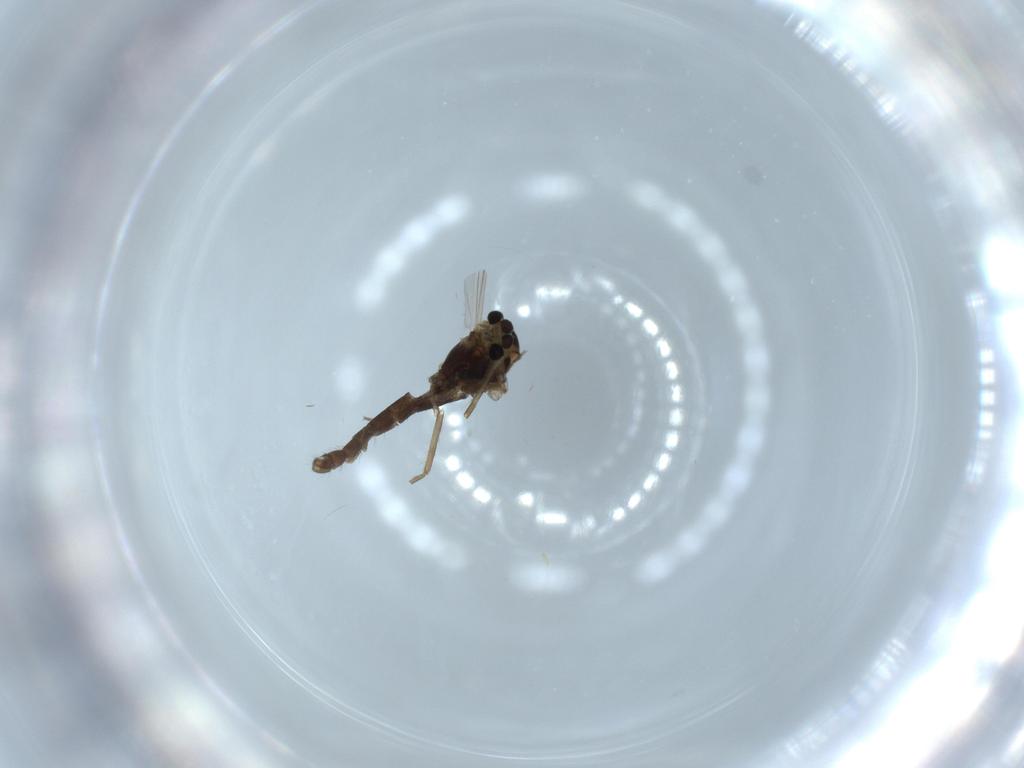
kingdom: Animalia
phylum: Arthropoda
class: Insecta
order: Diptera
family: Chironomidae
